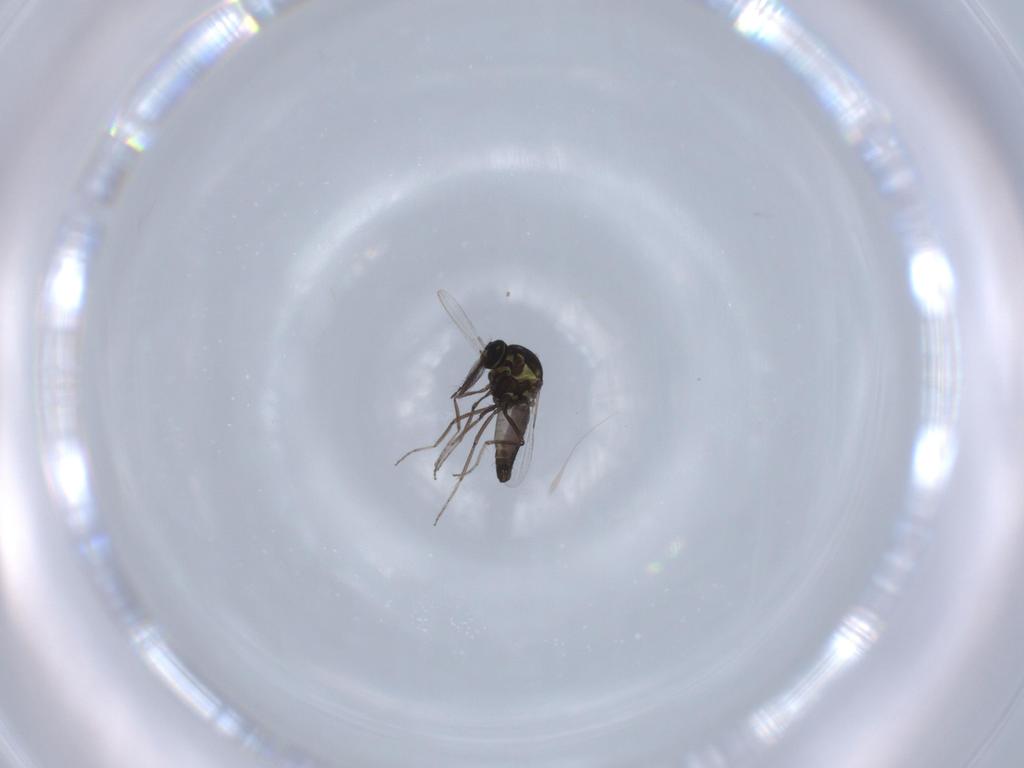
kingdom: Animalia
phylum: Arthropoda
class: Insecta
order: Diptera
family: Ceratopogonidae
